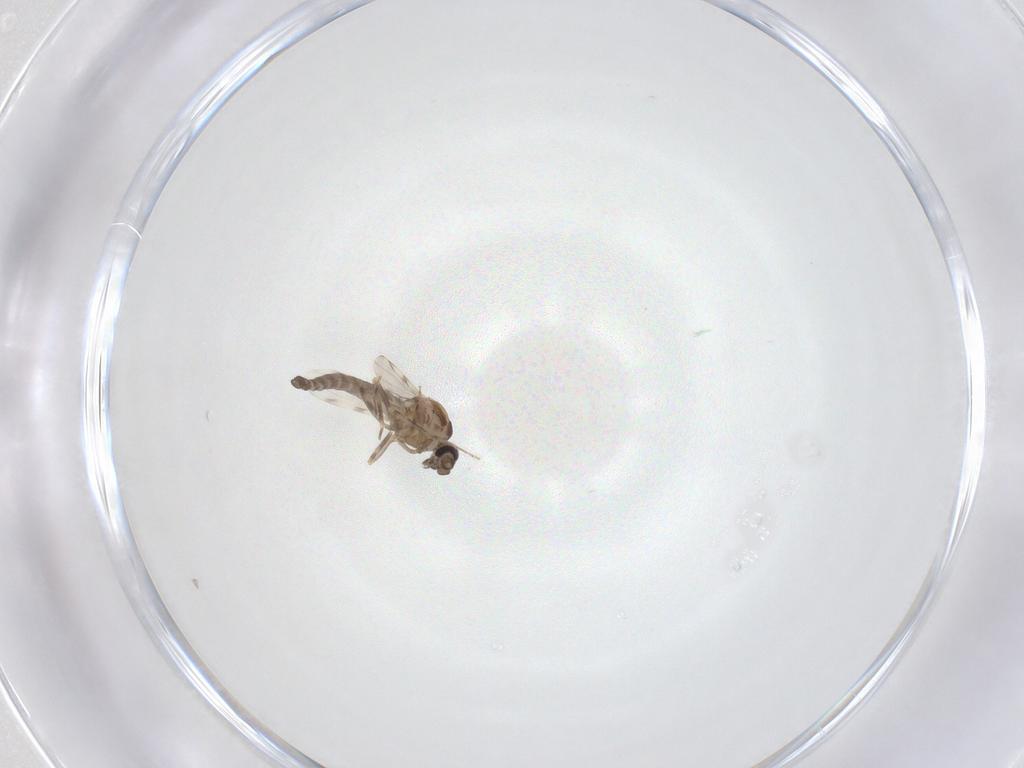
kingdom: Animalia
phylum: Arthropoda
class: Insecta
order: Diptera
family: Ceratopogonidae
